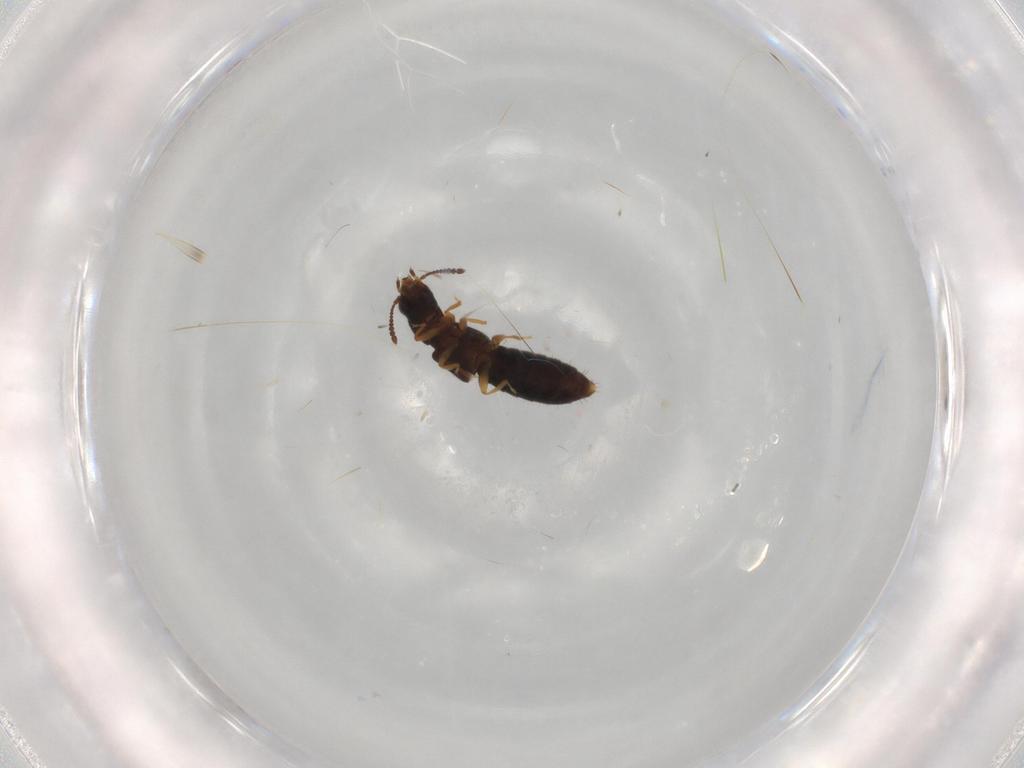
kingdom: Animalia
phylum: Arthropoda
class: Insecta
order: Coleoptera
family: Staphylinidae
